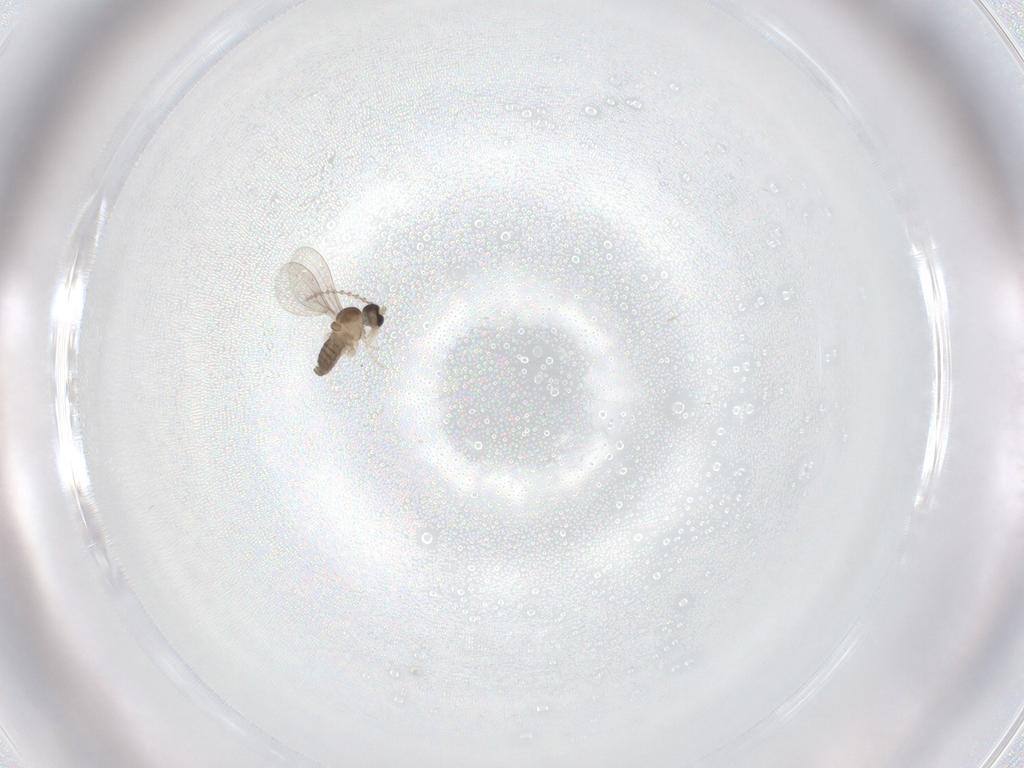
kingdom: Animalia
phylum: Arthropoda
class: Insecta
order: Diptera
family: Cecidomyiidae
